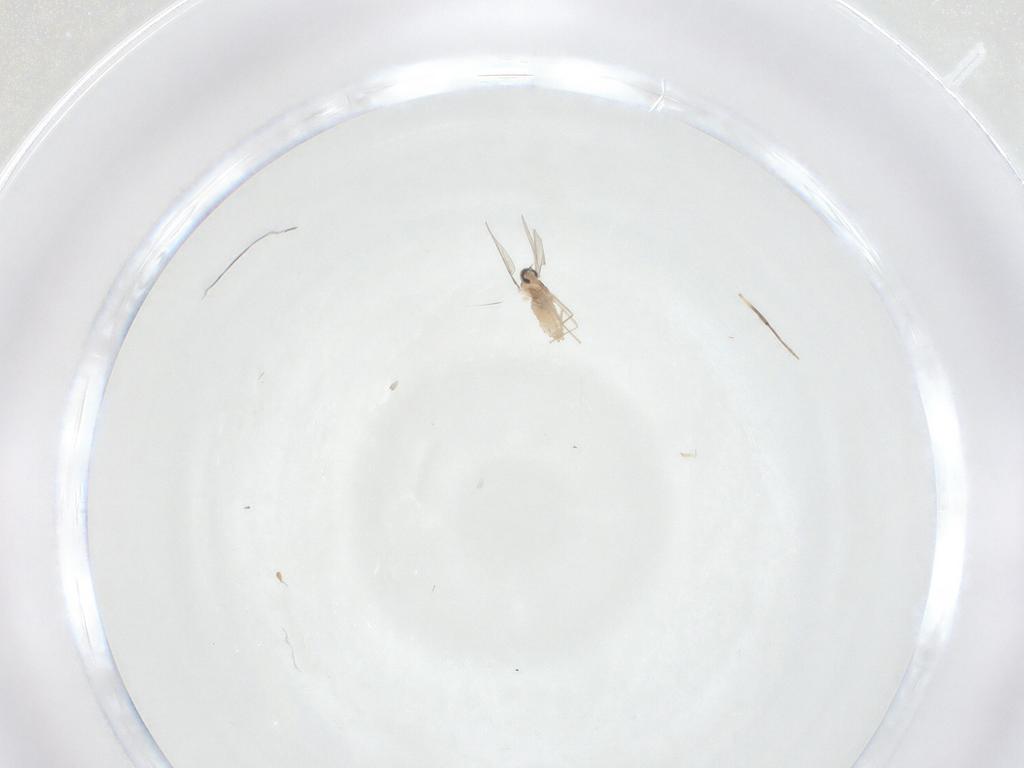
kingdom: Animalia
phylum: Arthropoda
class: Insecta
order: Diptera
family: Chironomidae
